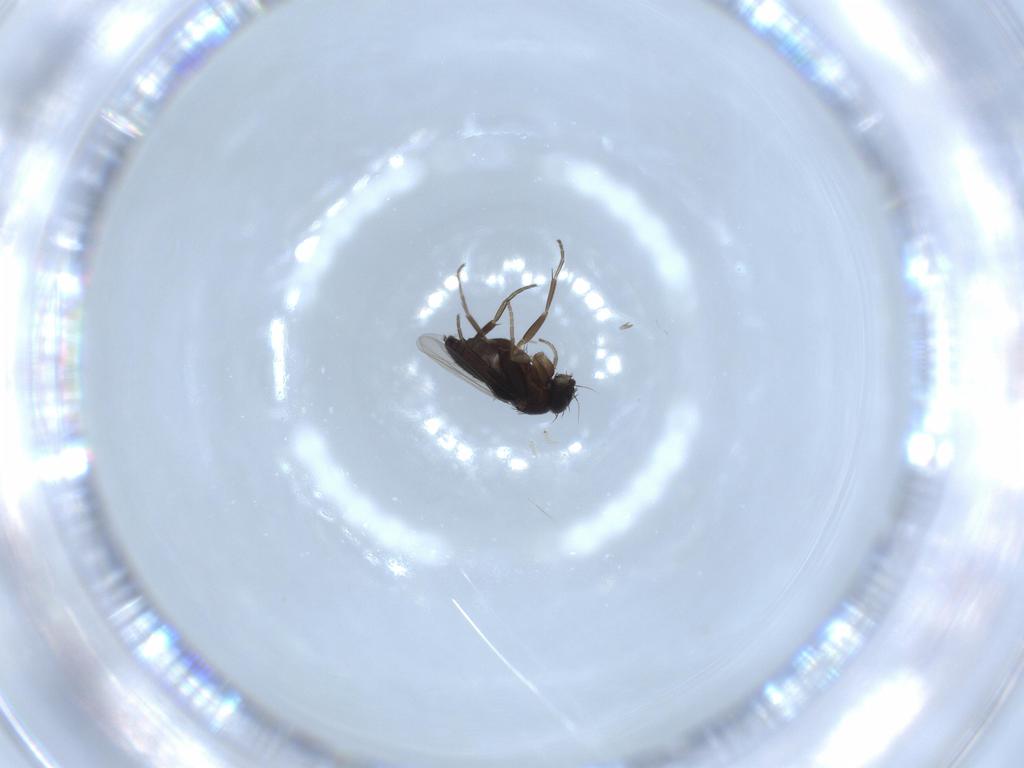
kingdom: Animalia
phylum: Arthropoda
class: Insecta
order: Diptera
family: Phoridae
